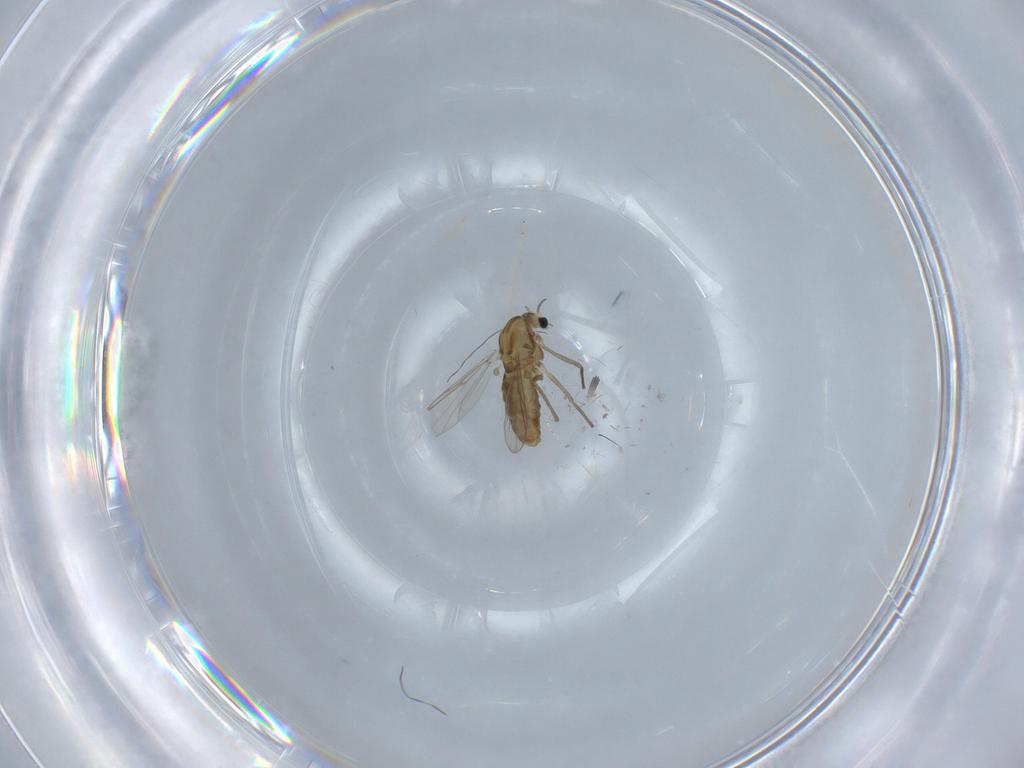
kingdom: Animalia
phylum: Arthropoda
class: Insecta
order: Diptera
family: Chironomidae
